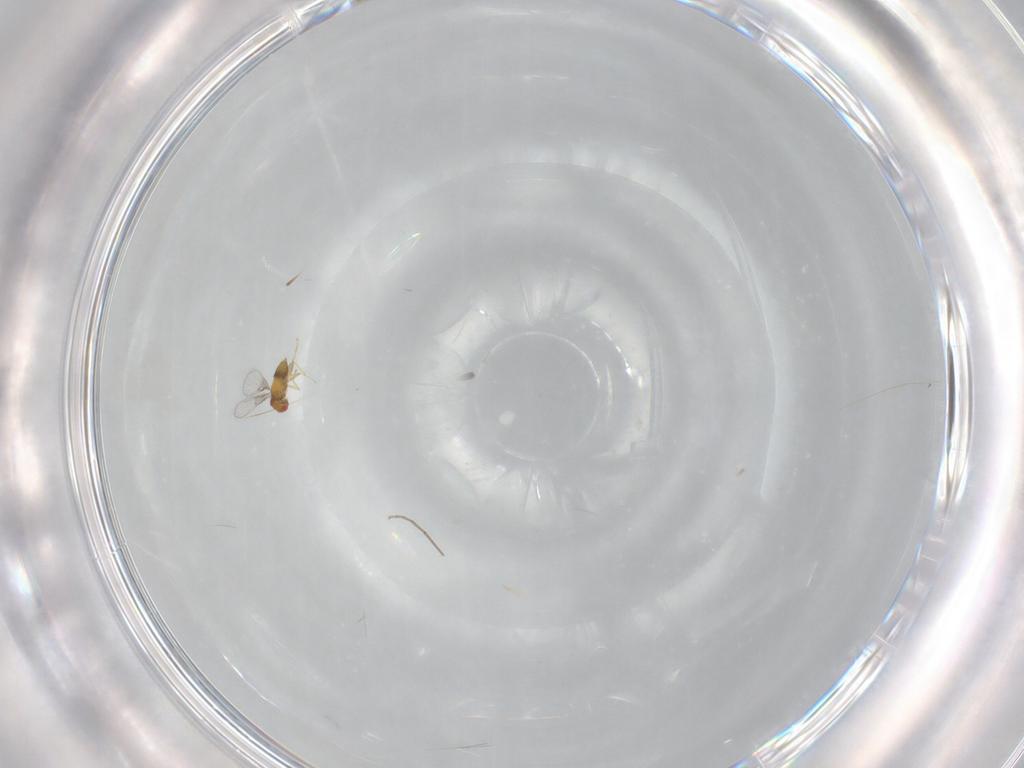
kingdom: Animalia
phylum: Arthropoda
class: Insecta
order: Hymenoptera
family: Trichogrammatidae
